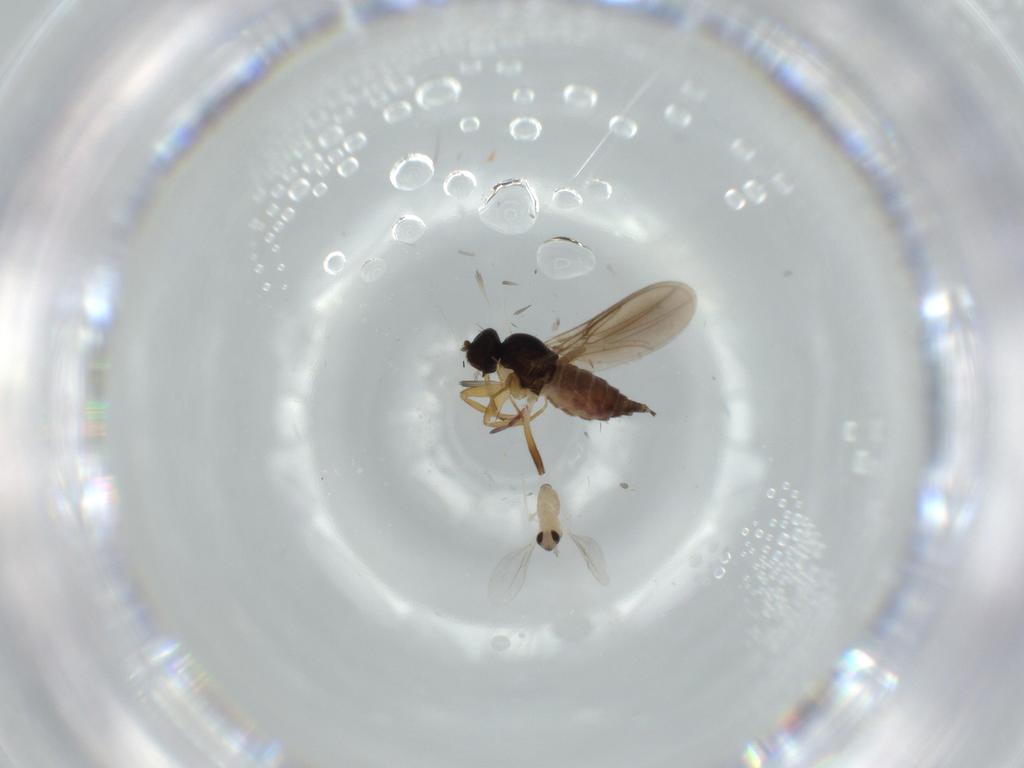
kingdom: Animalia
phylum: Arthropoda
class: Insecta
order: Diptera
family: Hybotidae
